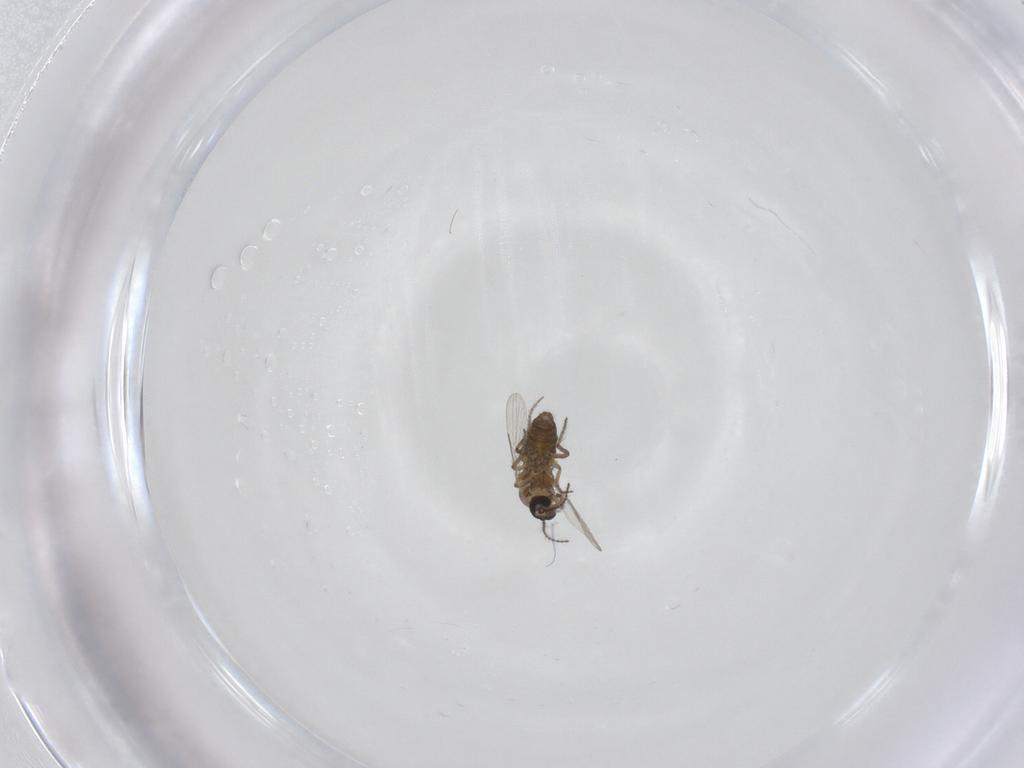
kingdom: Animalia
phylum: Arthropoda
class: Insecta
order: Diptera
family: Ceratopogonidae
